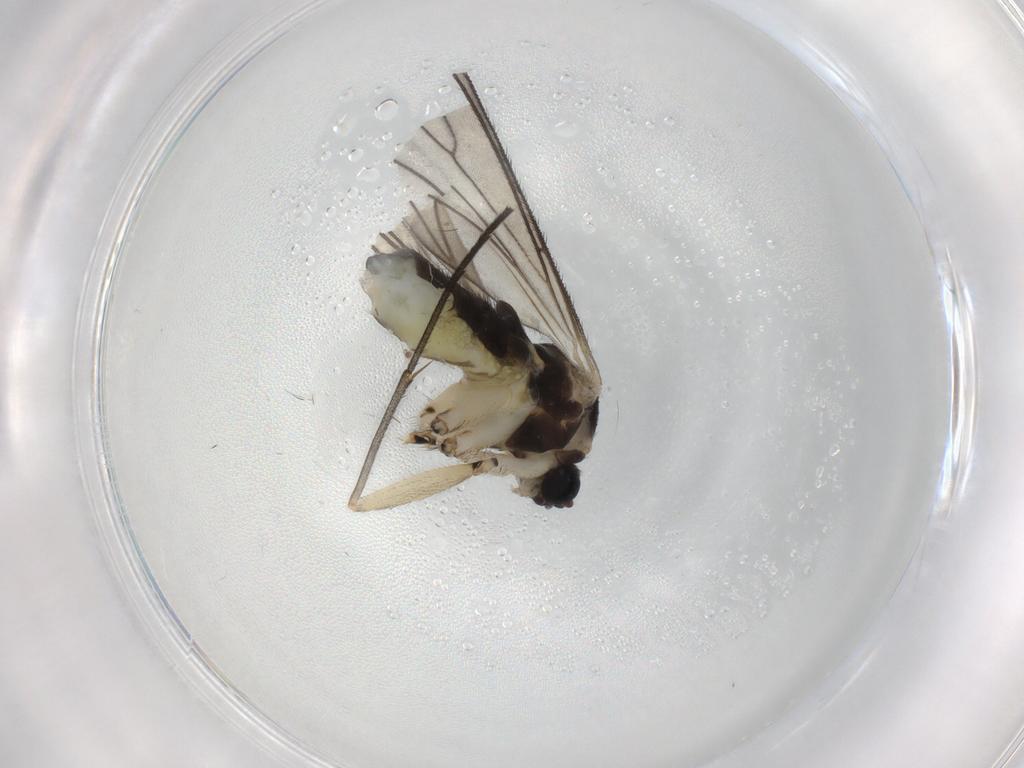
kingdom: Animalia
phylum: Arthropoda
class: Insecta
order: Diptera
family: Sciaridae
